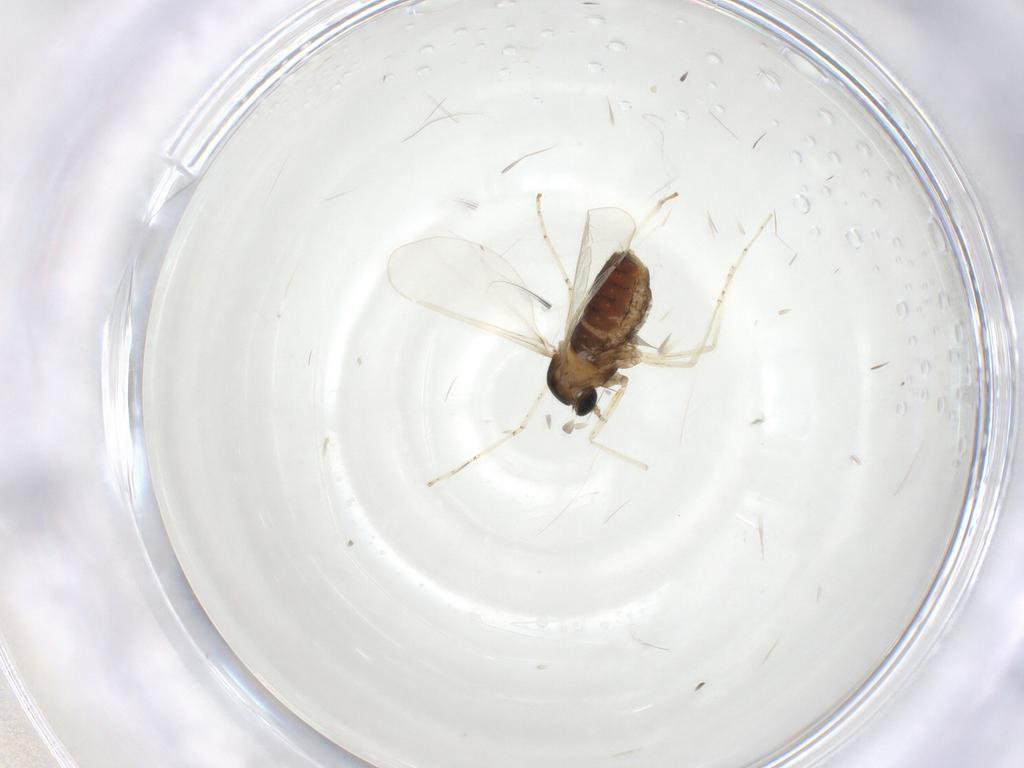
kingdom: Animalia
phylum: Arthropoda
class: Insecta
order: Diptera
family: Cecidomyiidae
